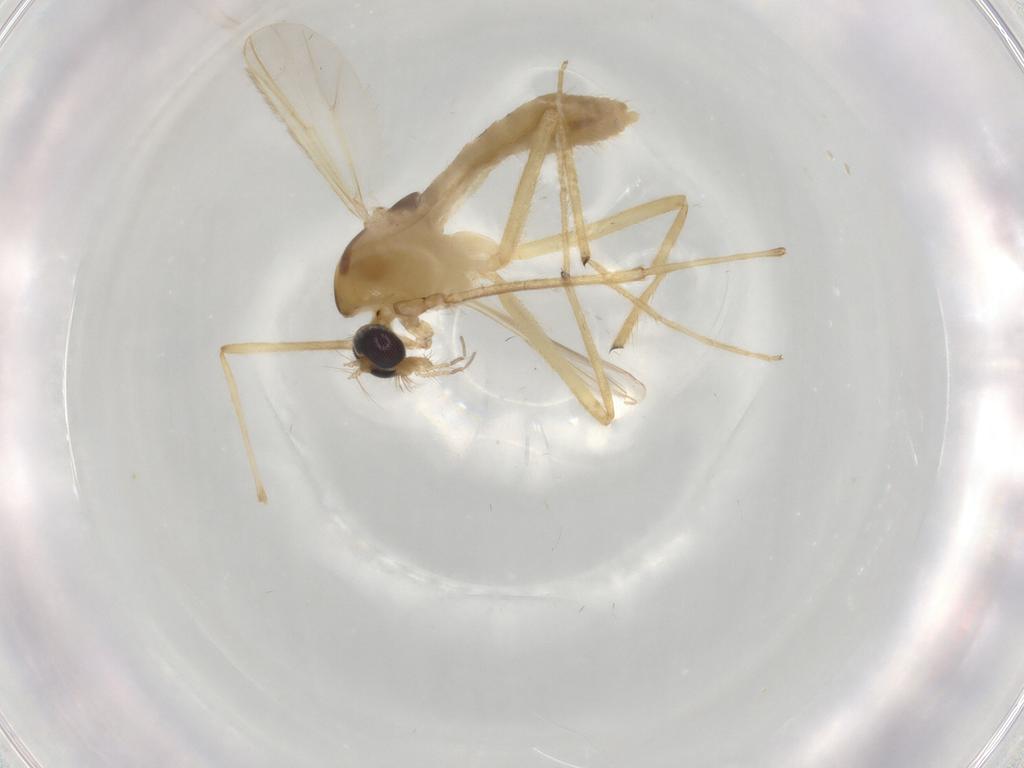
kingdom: Animalia
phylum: Arthropoda
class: Insecta
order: Diptera
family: Chironomidae
